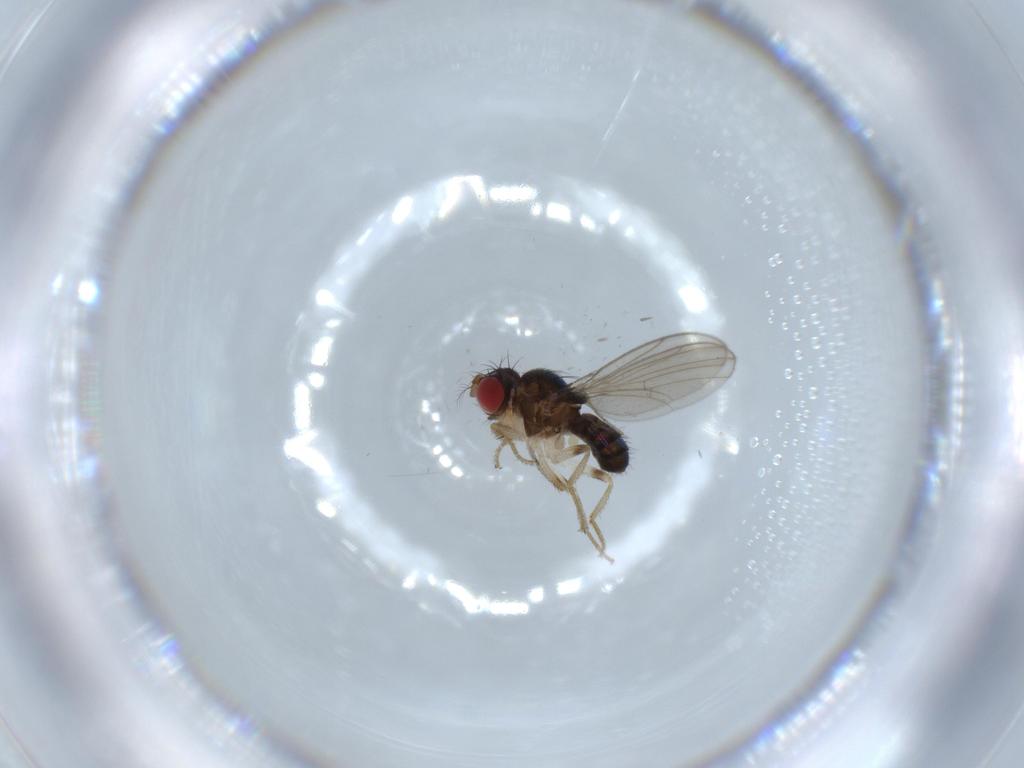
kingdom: Animalia
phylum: Arthropoda
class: Insecta
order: Diptera
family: Drosophilidae
